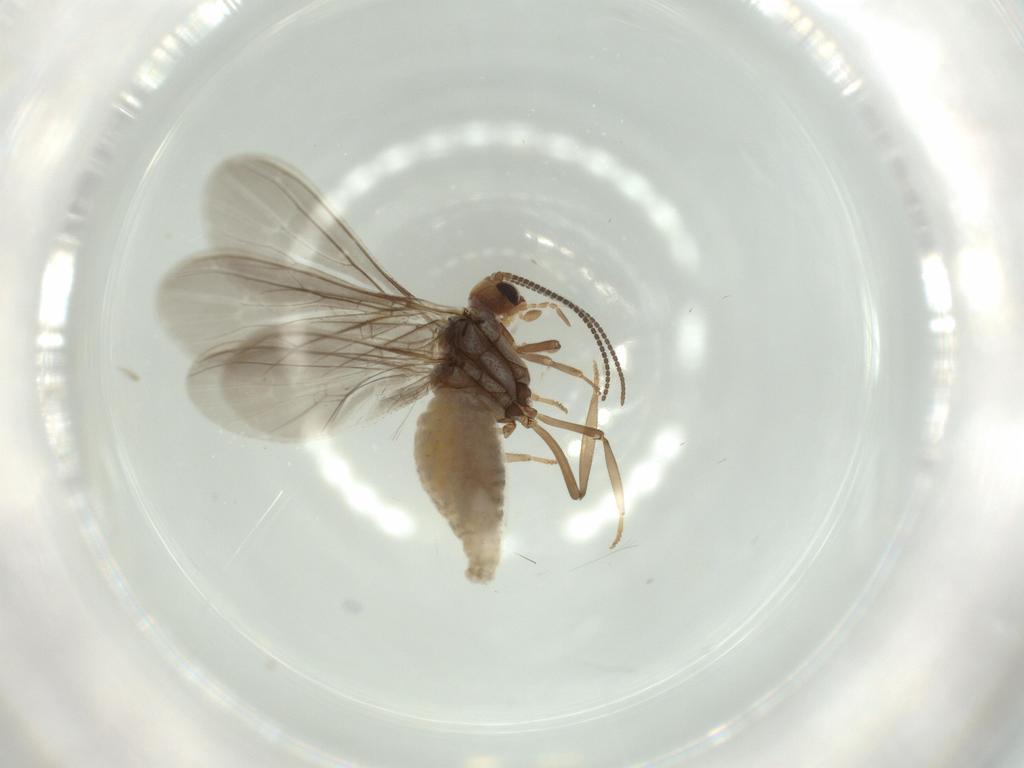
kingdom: Animalia
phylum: Arthropoda
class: Insecta
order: Neuroptera
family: Coniopterygidae
